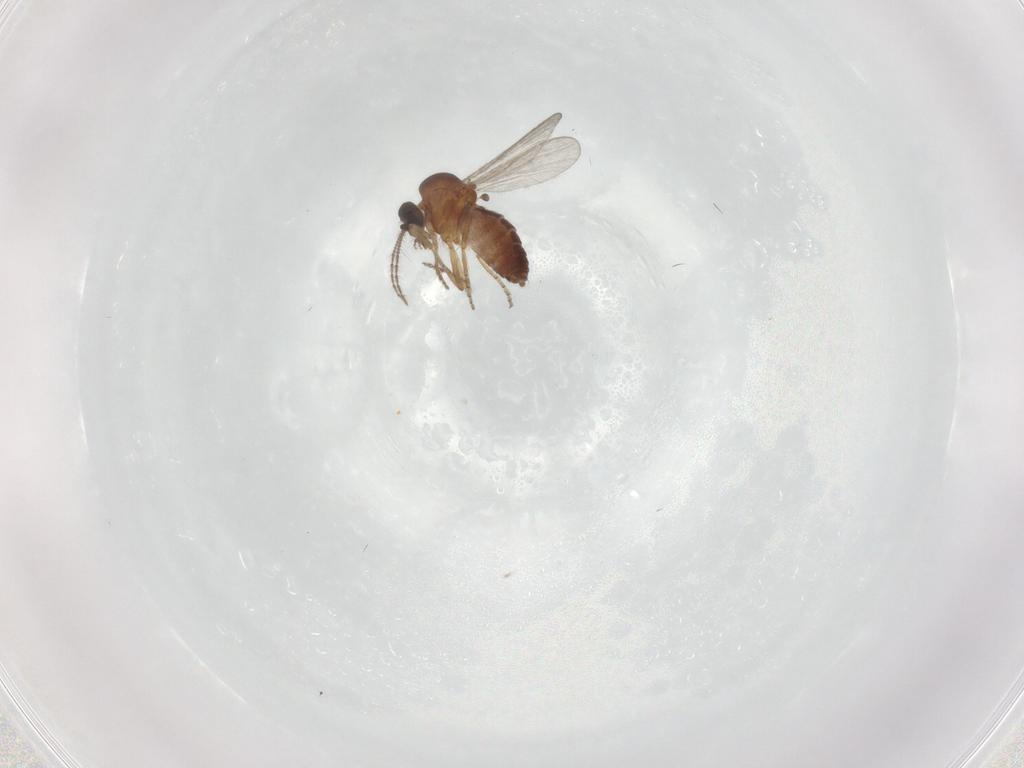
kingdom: Animalia
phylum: Arthropoda
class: Insecta
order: Diptera
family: Ceratopogonidae
